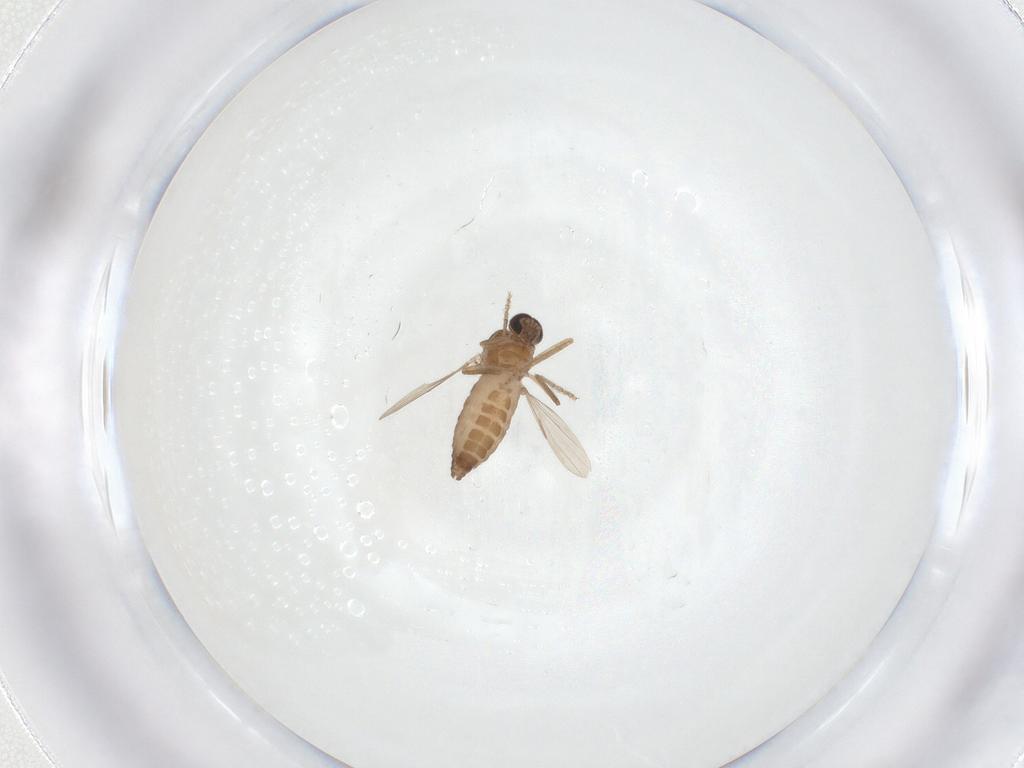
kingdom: Animalia
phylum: Arthropoda
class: Insecta
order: Diptera
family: Ceratopogonidae
